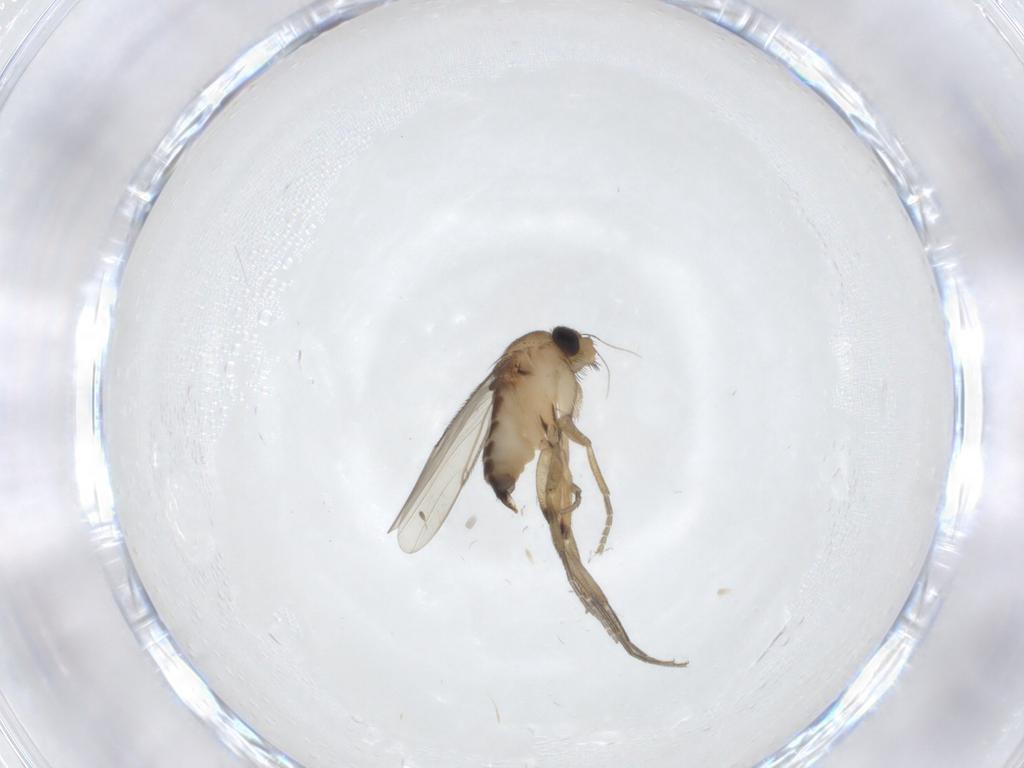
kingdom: Animalia
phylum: Arthropoda
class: Insecta
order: Diptera
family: Phoridae
